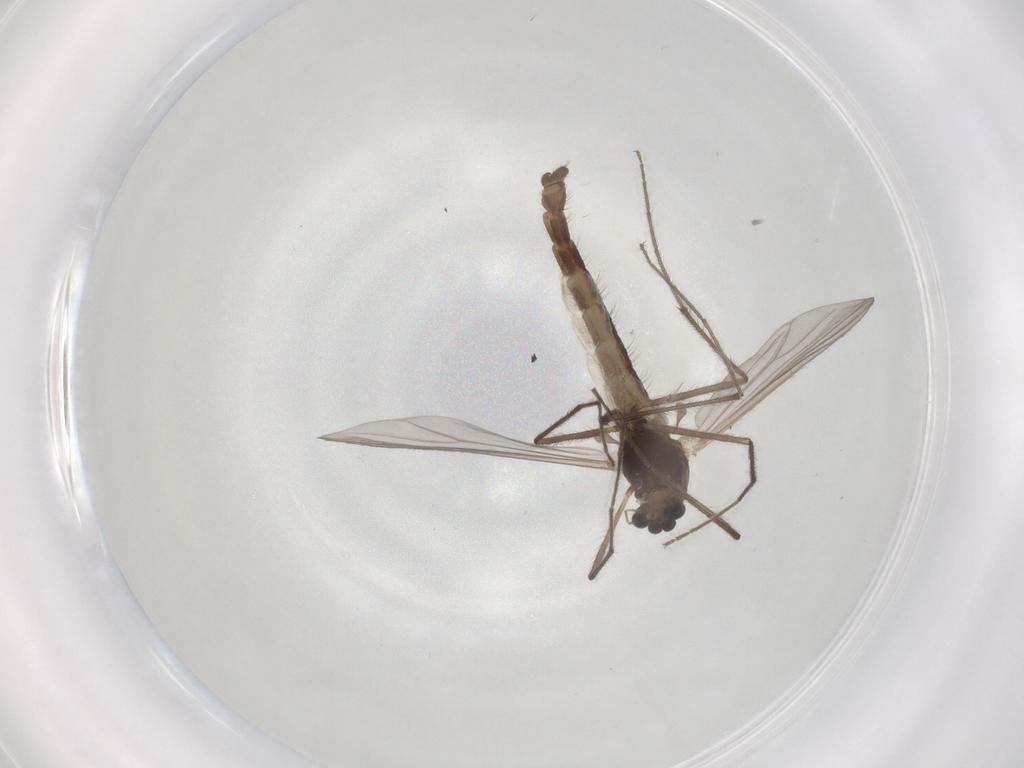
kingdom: Animalia
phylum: Arthropoda
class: Insecta
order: Diptera
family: Chironomidae
